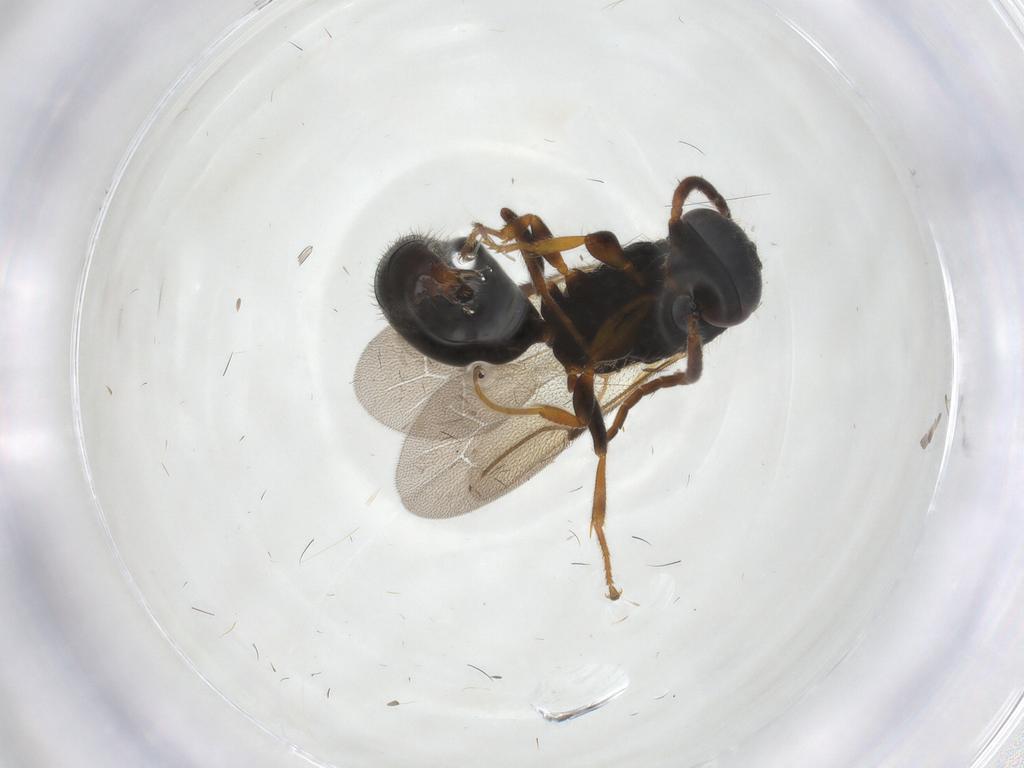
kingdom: Animalia
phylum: Arthropoda
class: Insecta
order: Hymenoptera
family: Bethylidae
